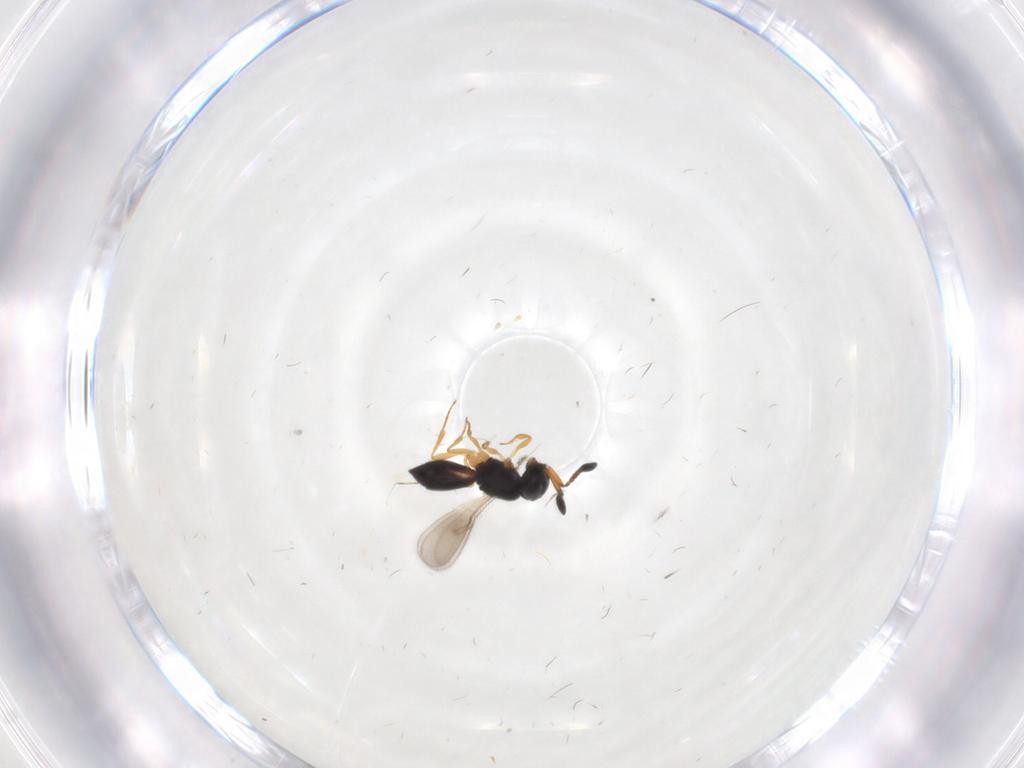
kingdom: Animalia
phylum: Arthropoda
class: Insecta
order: Hymenoptera
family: Scelionidae
